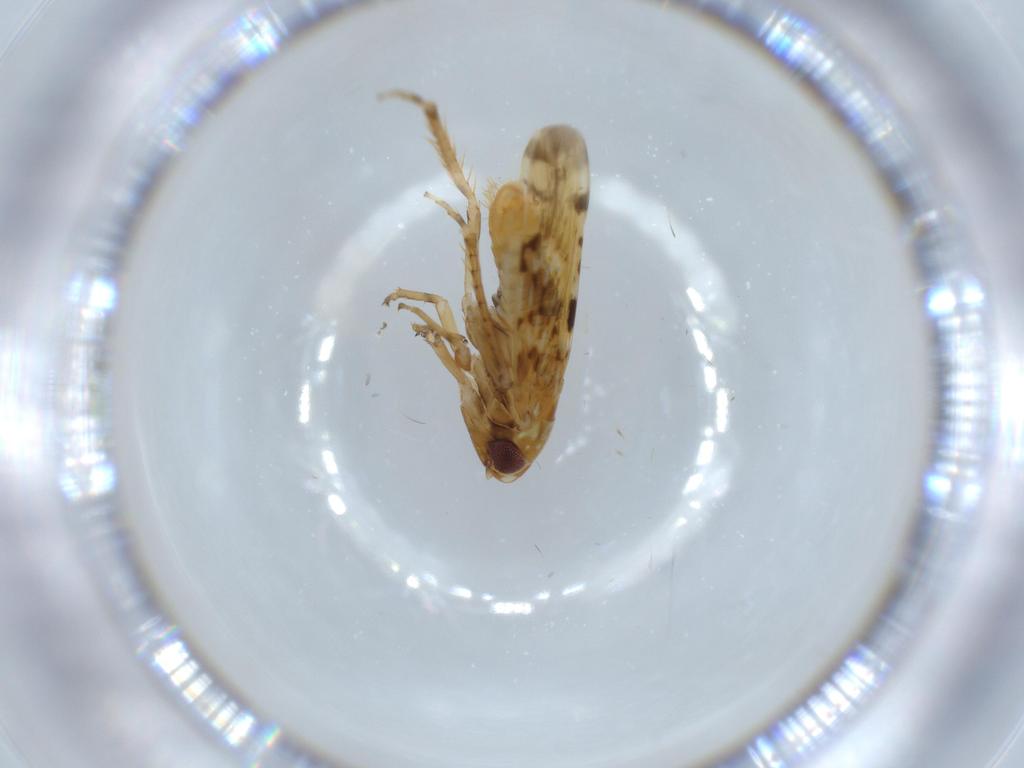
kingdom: Animalia
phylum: Arthropoda
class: Insecta
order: Hemiptera
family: Cicadellidae
